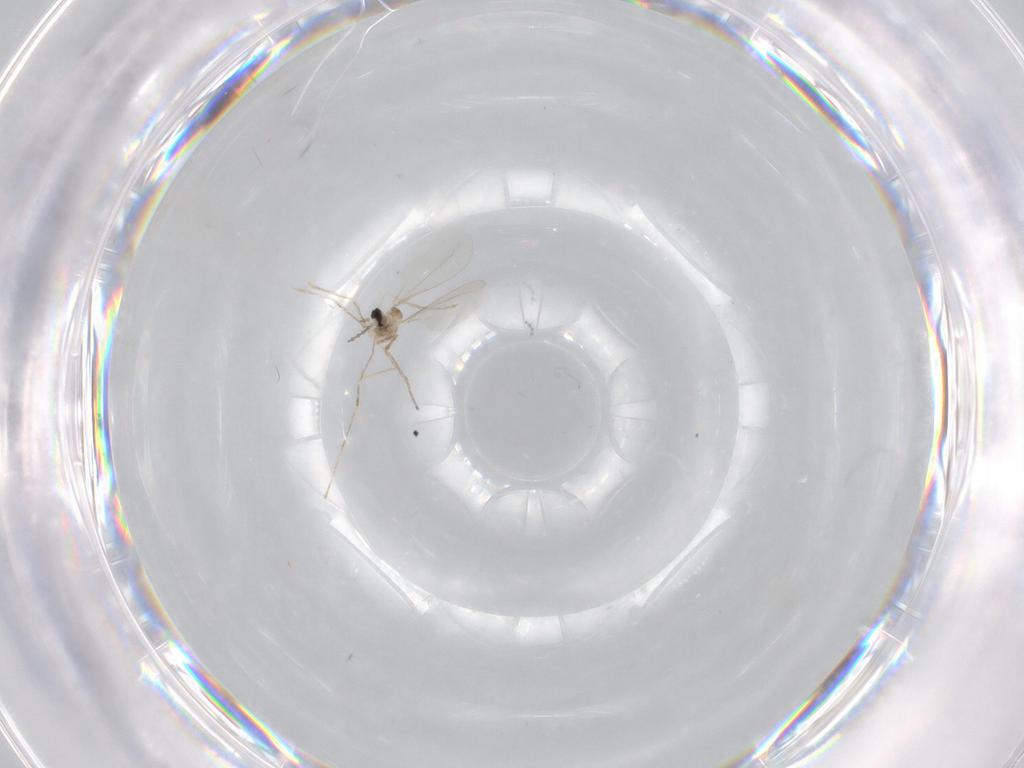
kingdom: Animalia
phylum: Arthropoda
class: Insecta
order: Diptera
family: Cecidomyiidae
